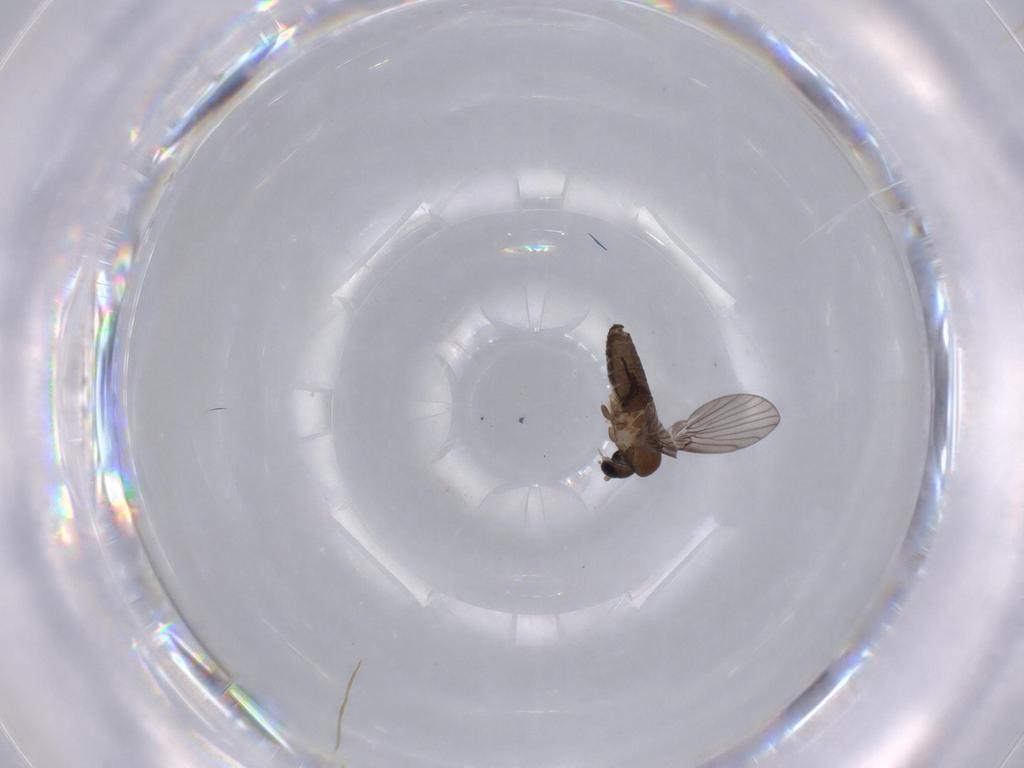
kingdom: Animalia
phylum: Arthropoda
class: Insecta
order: Diptera
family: Psychodidae
